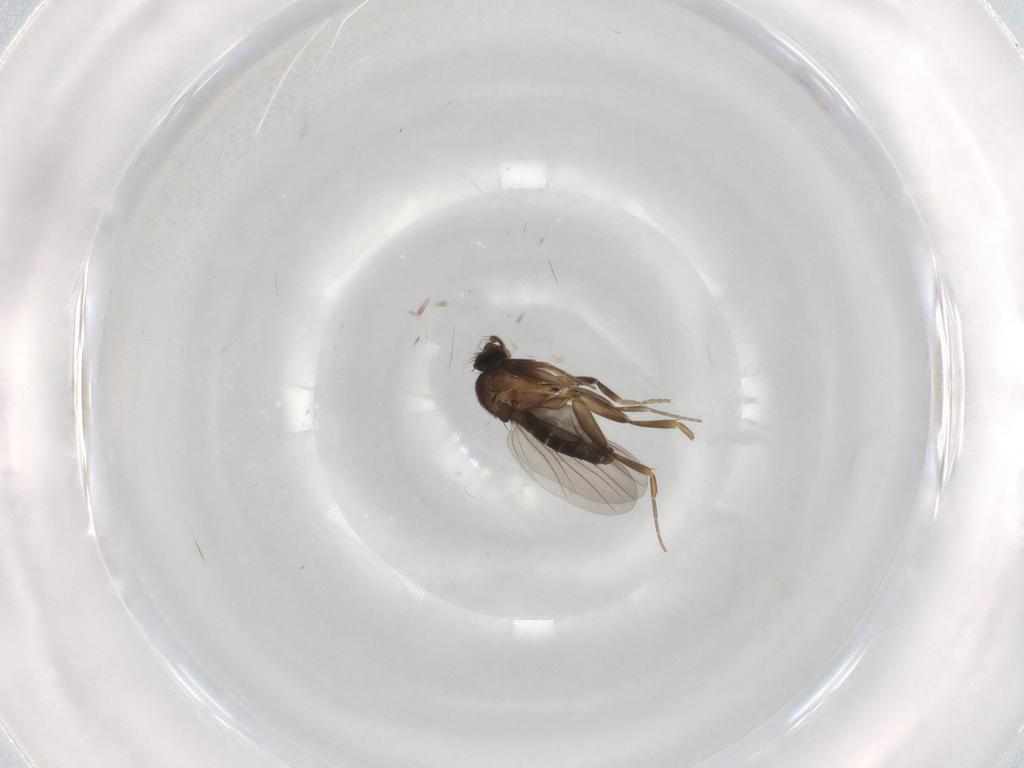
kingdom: Animalia
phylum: Arthropoda
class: Insecta
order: Diptera
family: Phoridae
